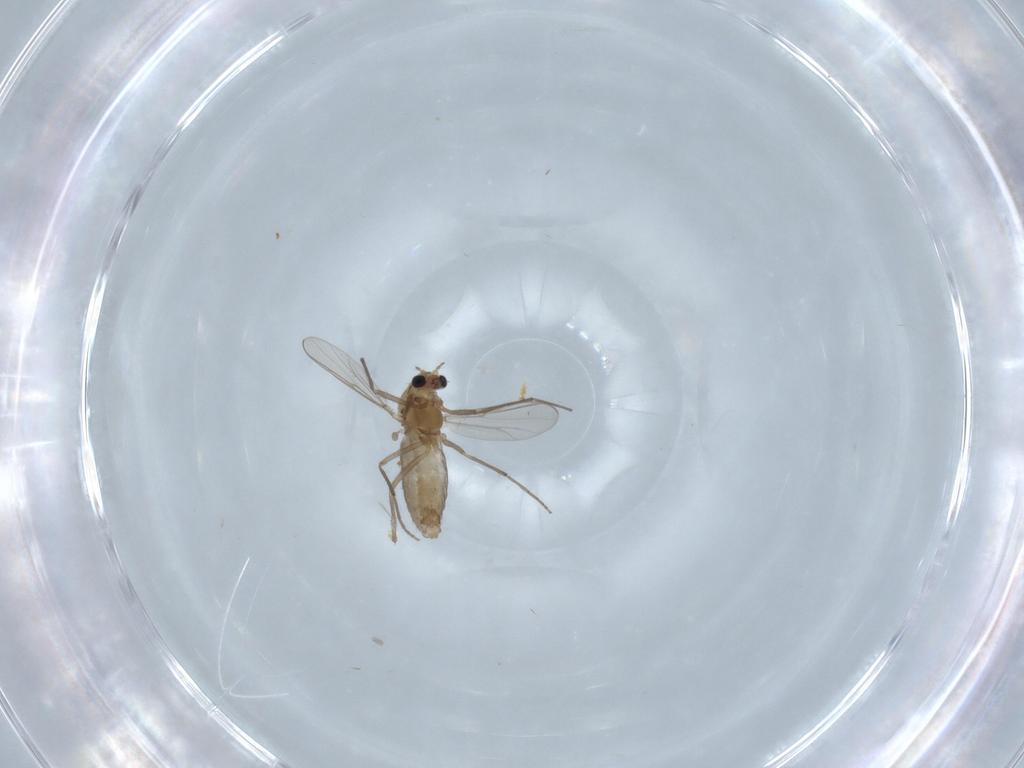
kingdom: Animalia
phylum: Arthropoda
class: Insecta
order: Diptera
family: Chironomidae
